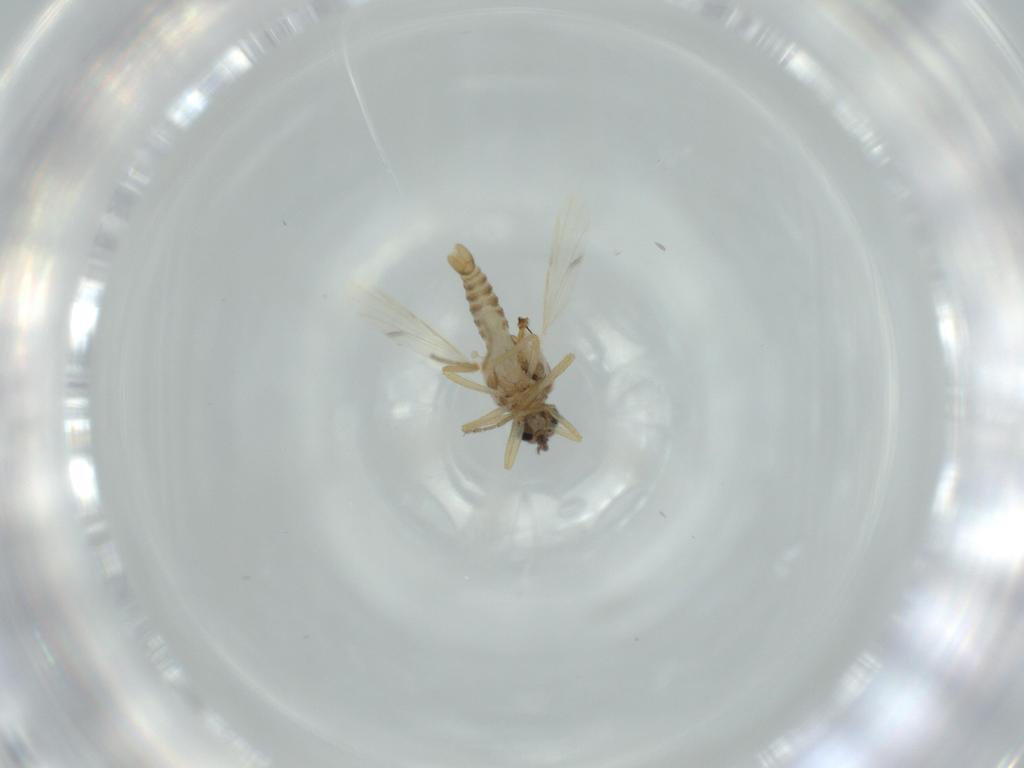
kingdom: Animalia
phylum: Arthropoda
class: Insecta
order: Diptera
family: Ceratopogonidae
